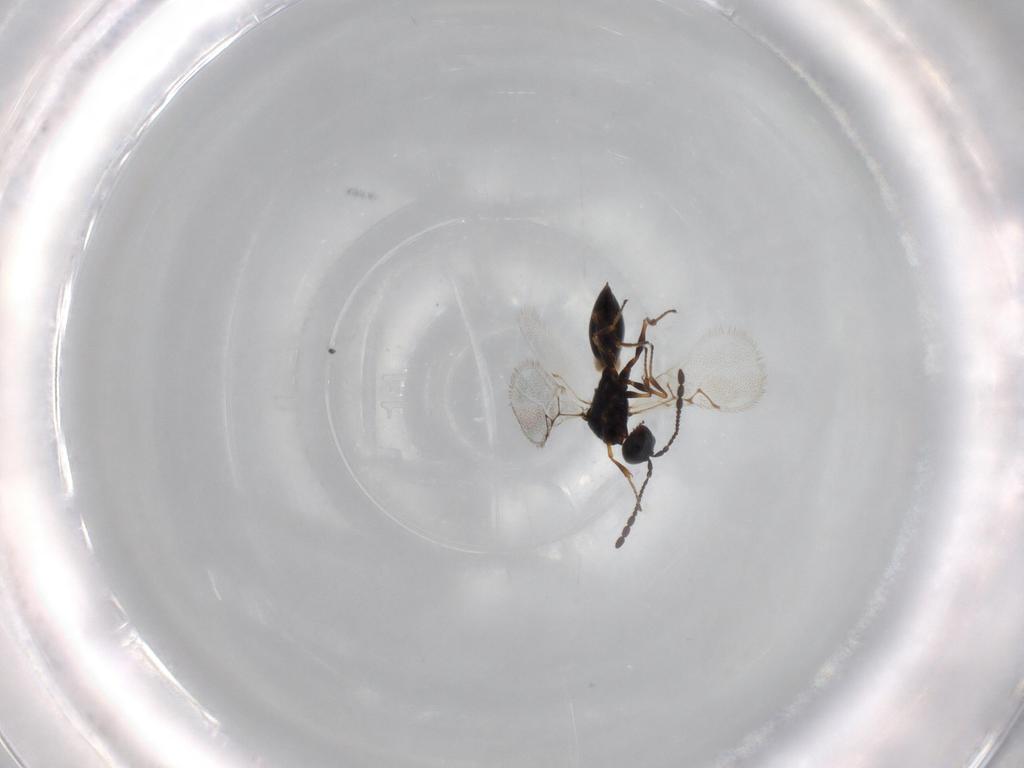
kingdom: Animalia
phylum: Arthropoda
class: Insecta
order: Hymenoptera
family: Figitidae
